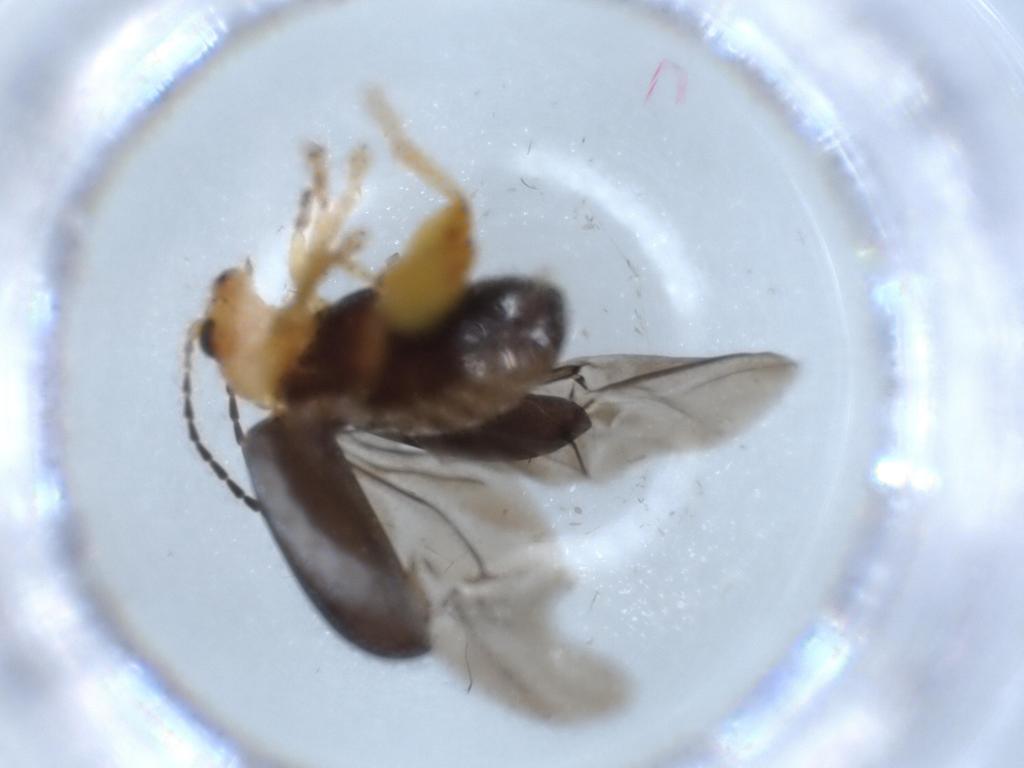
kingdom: Animalia
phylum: Arthropoda
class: Insecta
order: Coleoptera
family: Chrysomelidae
